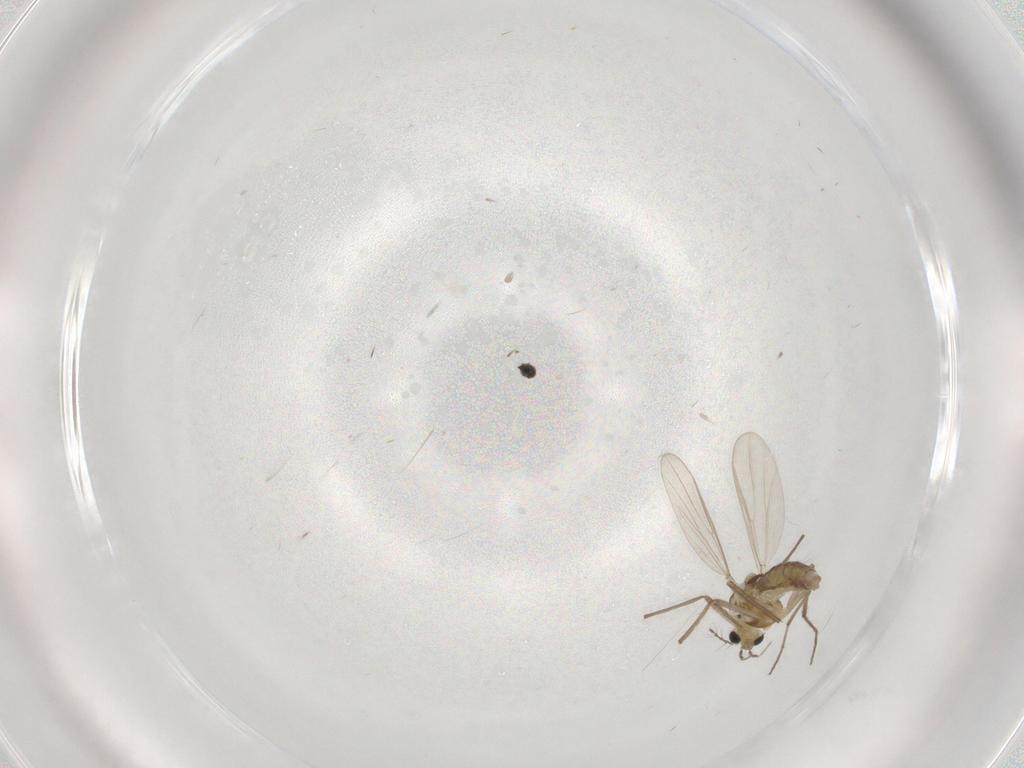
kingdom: Animalia
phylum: Arthropoda
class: Insecta
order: Diptera
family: Chironomidae
